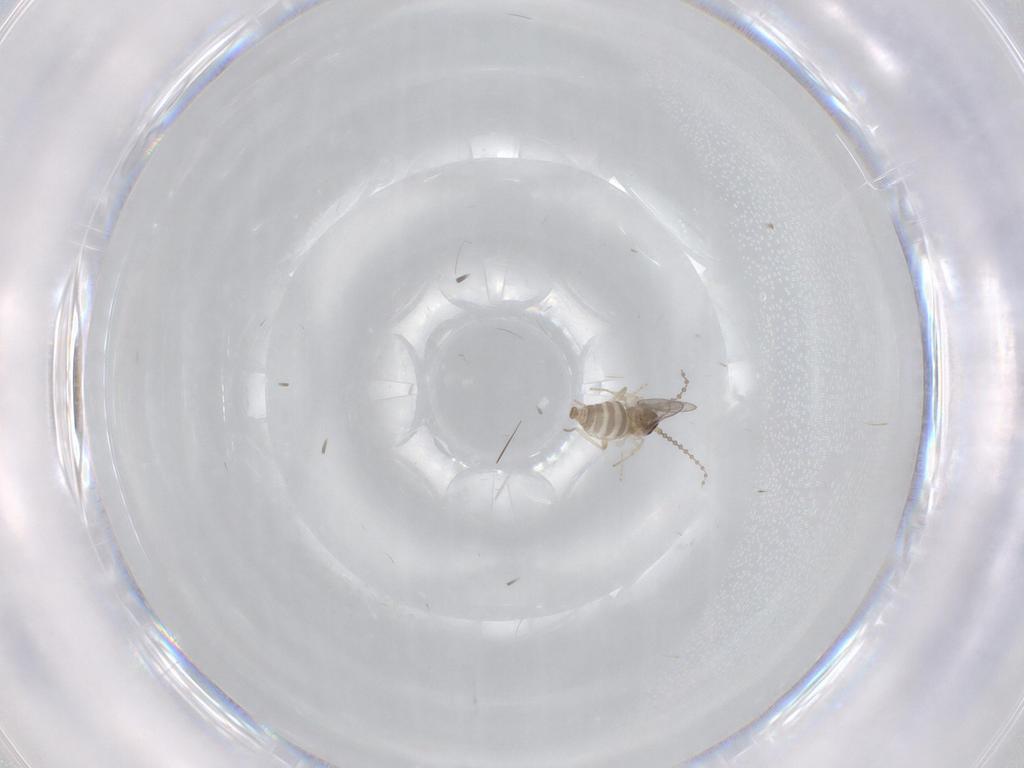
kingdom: Animalia
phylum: Arthropoda
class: Insecta
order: Diptera
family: Cecidomyiidae
